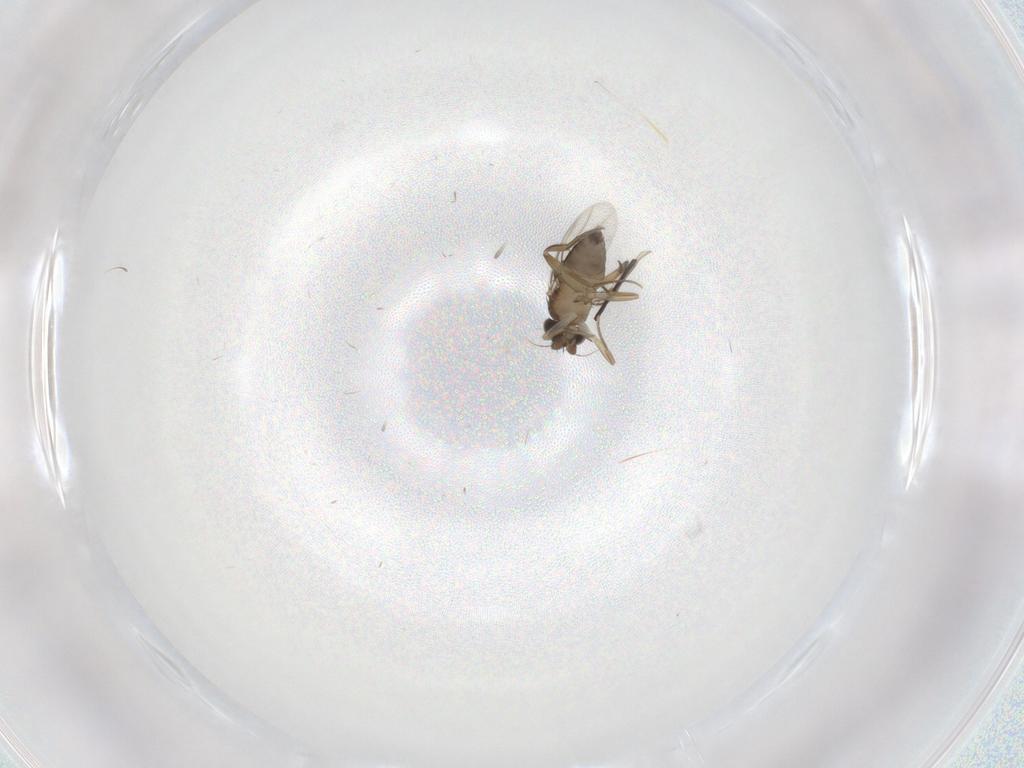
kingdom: Animalia
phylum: Arthropoda
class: Insecta
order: Diptera
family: Phoridae
